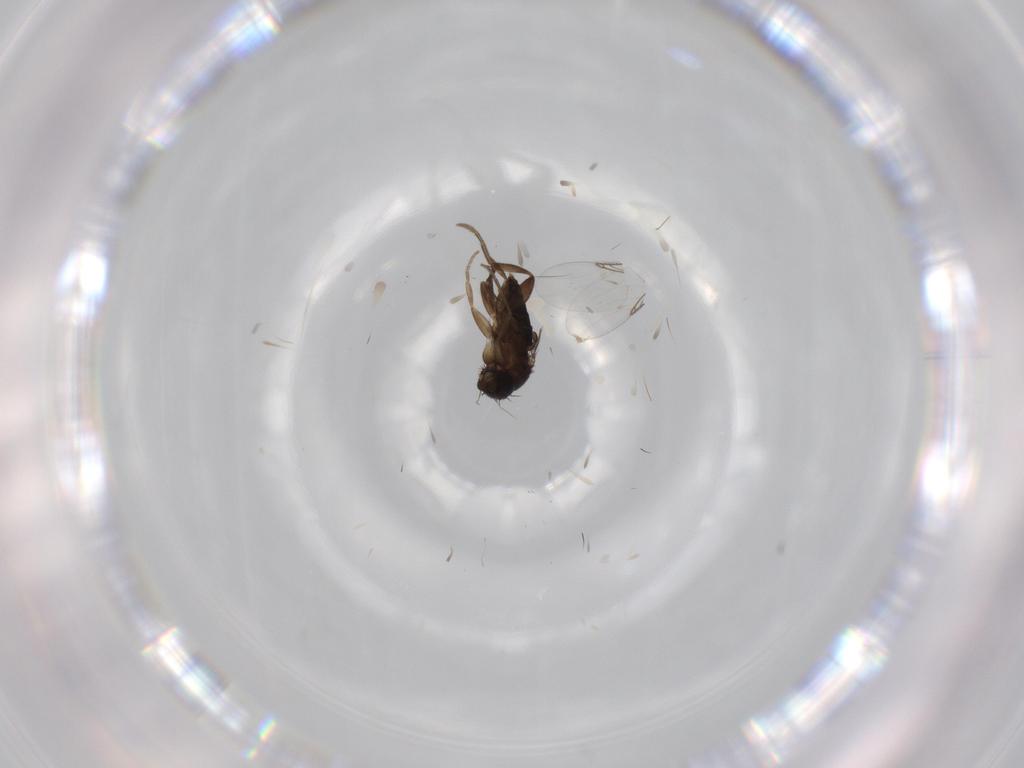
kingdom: Animalia
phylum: Arthropoda
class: Insecta
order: Diptera
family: Phoridae
